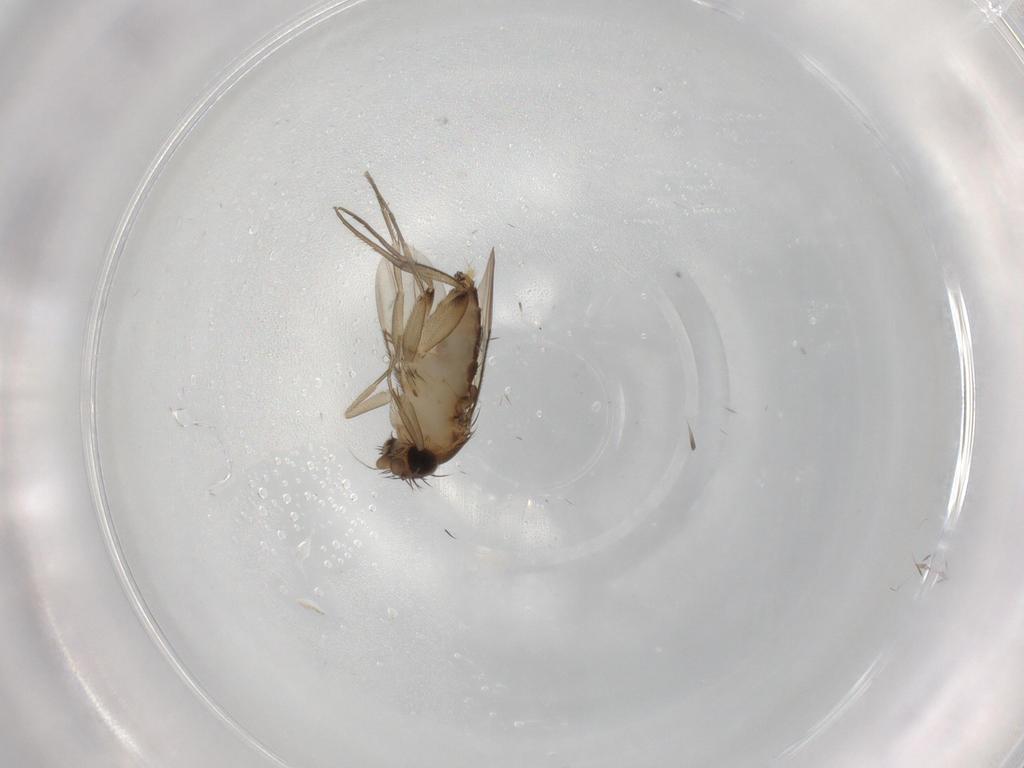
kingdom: Animalia
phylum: Arthropoda
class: Insecta
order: Diptera
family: Phoridae
